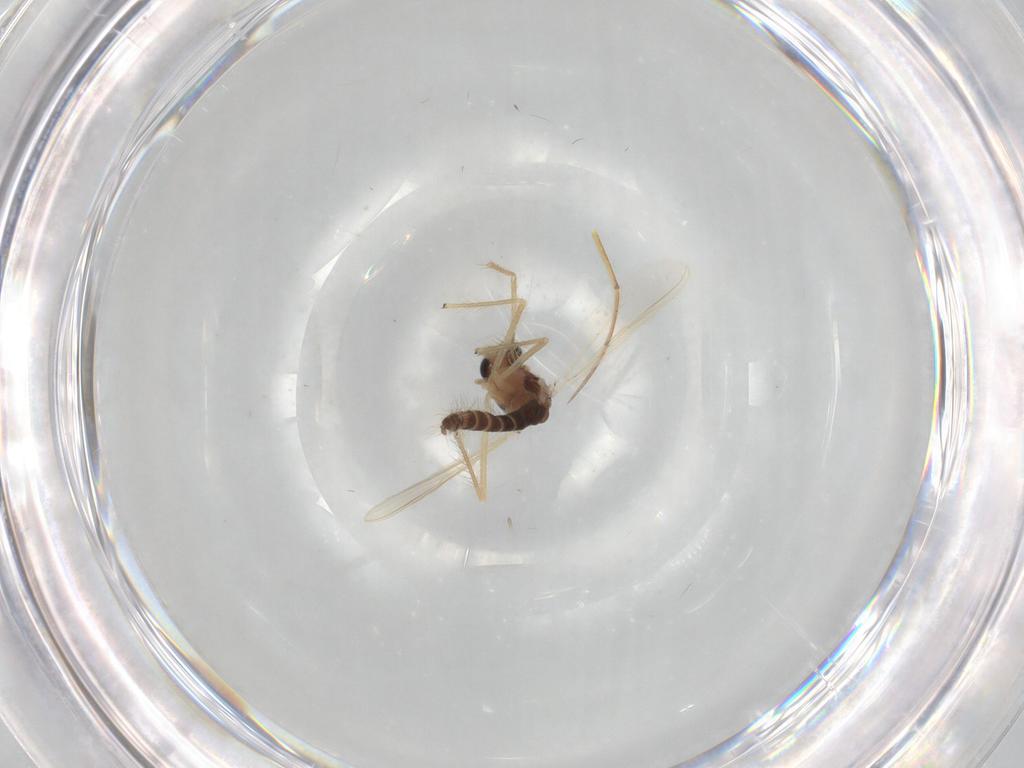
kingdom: Animalia
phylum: Arthropoda
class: Insecta
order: Diptera
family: Chironomidae
